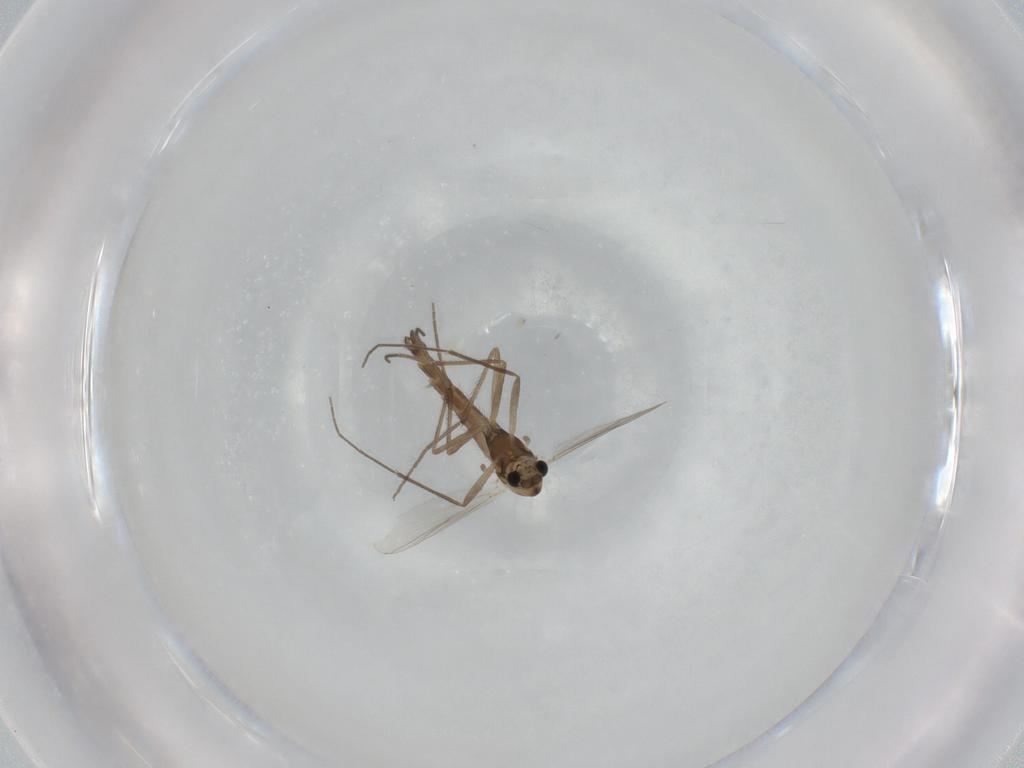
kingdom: Animalia
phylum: Arthropoda
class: Insecta
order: Diptera
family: Chironomidae
